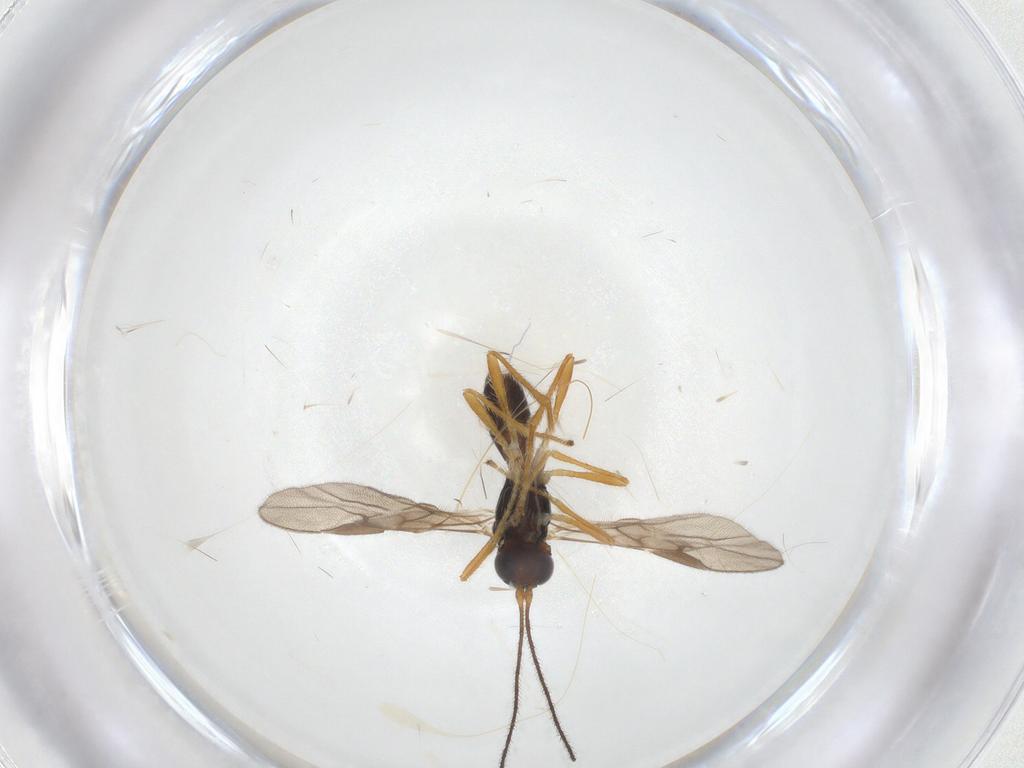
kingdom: Animalia
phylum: Arthropoda
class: Insecta
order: Hymenoptera
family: Braconidae
